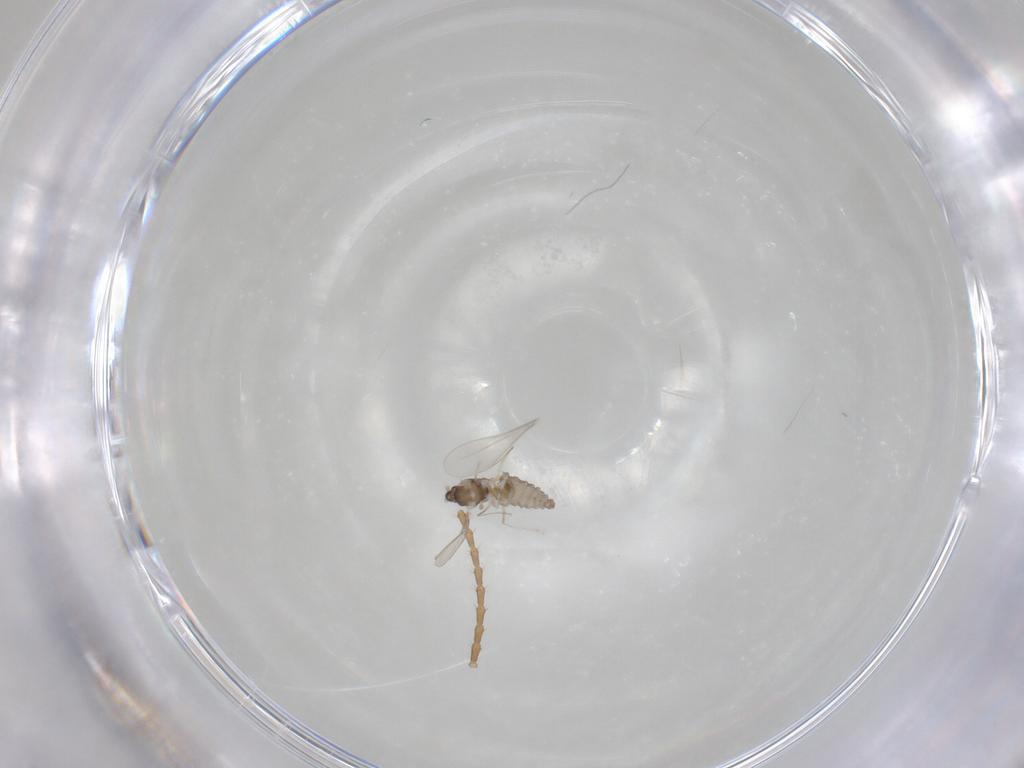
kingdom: Animalia
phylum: Arthropoda
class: Insecta
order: Diptera
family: Cecidomyiidae
